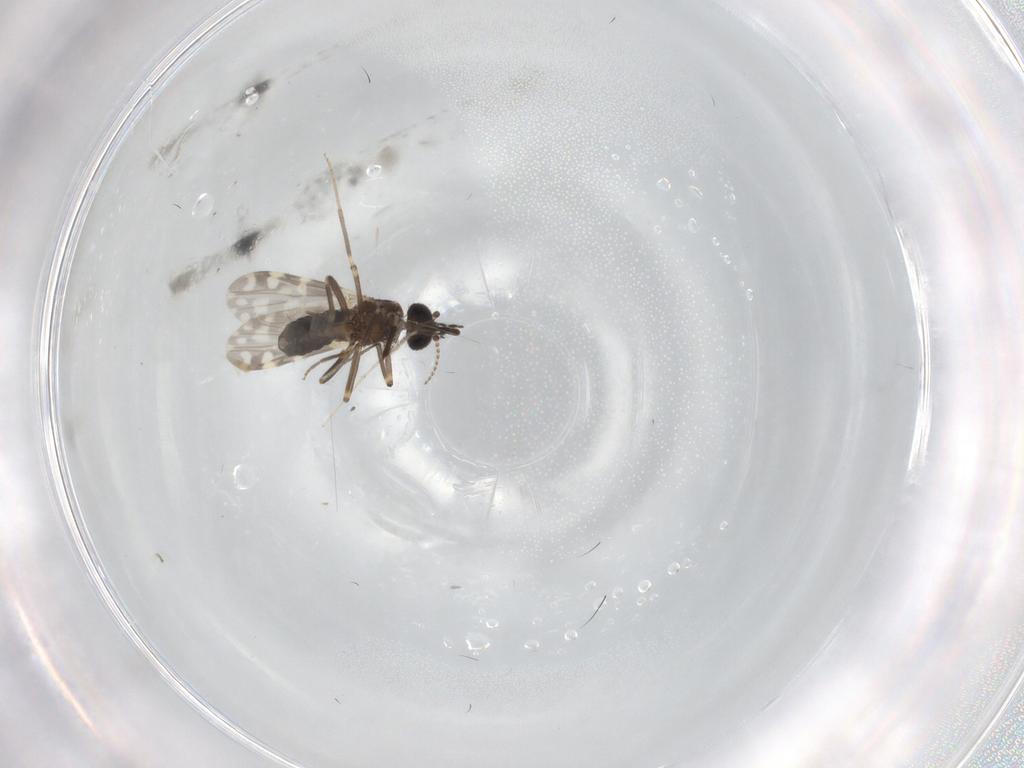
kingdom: Animalia
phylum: Arthropoda
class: Insecta
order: Diptera
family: Ceratopogonidae
